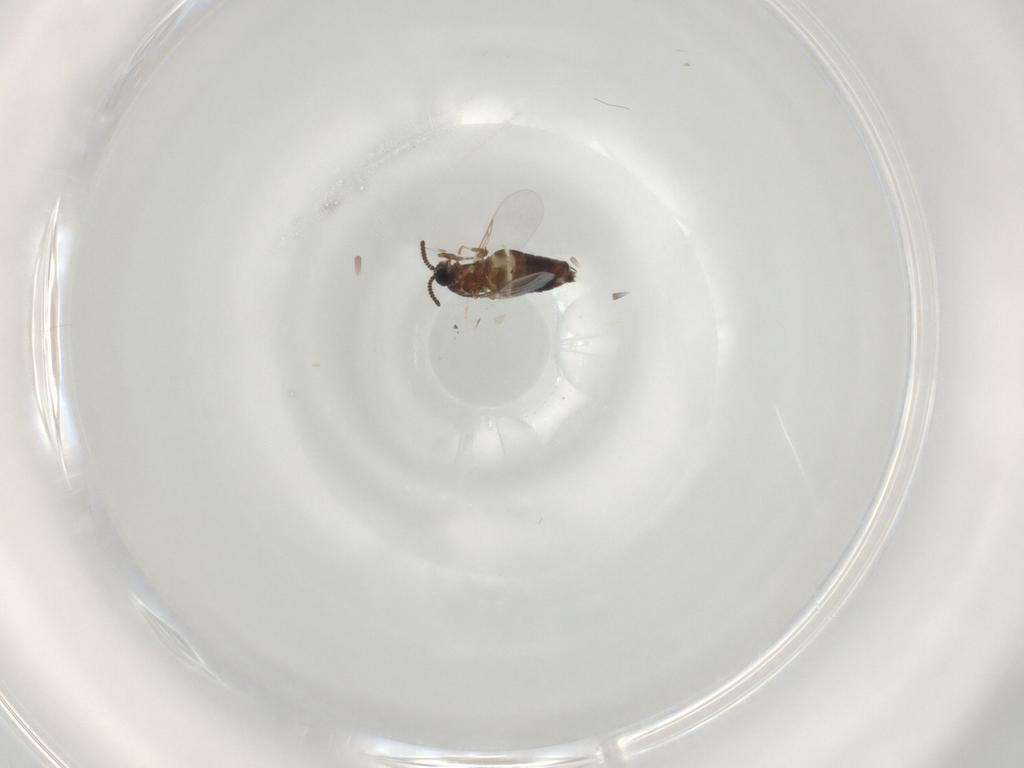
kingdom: Animalia
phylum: Arthropoda
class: Insecta
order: Diptera
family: Scatopsidae
